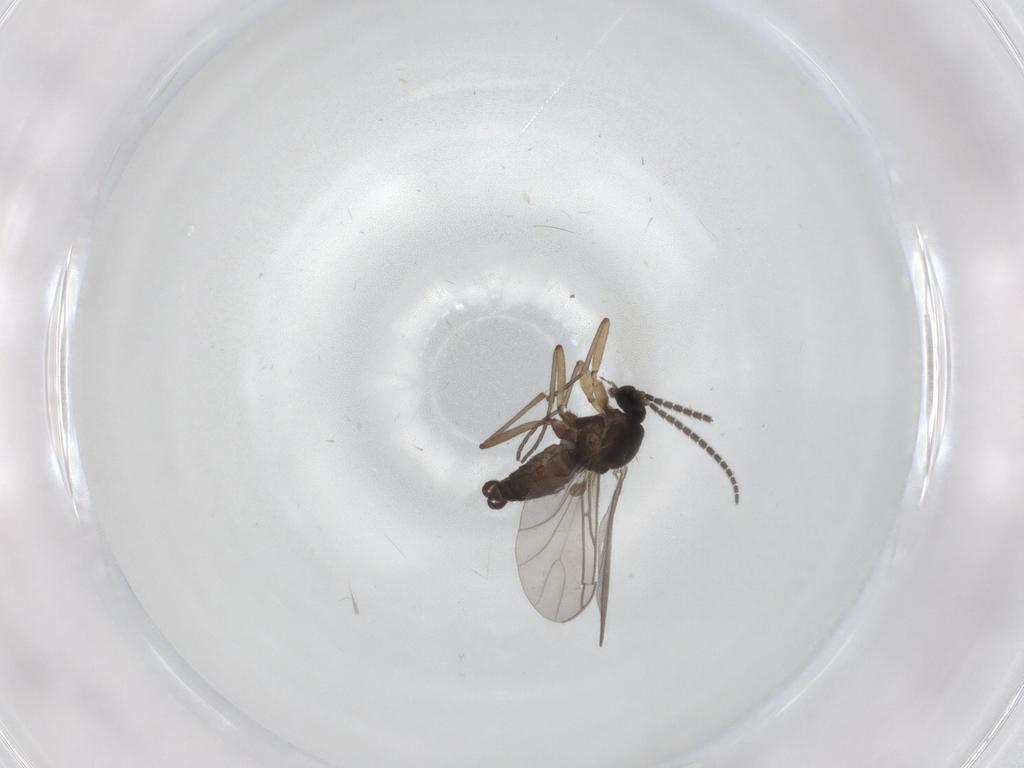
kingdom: Animalia
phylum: Arthropoda
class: Insecta
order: Diptera
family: Sciaridae
